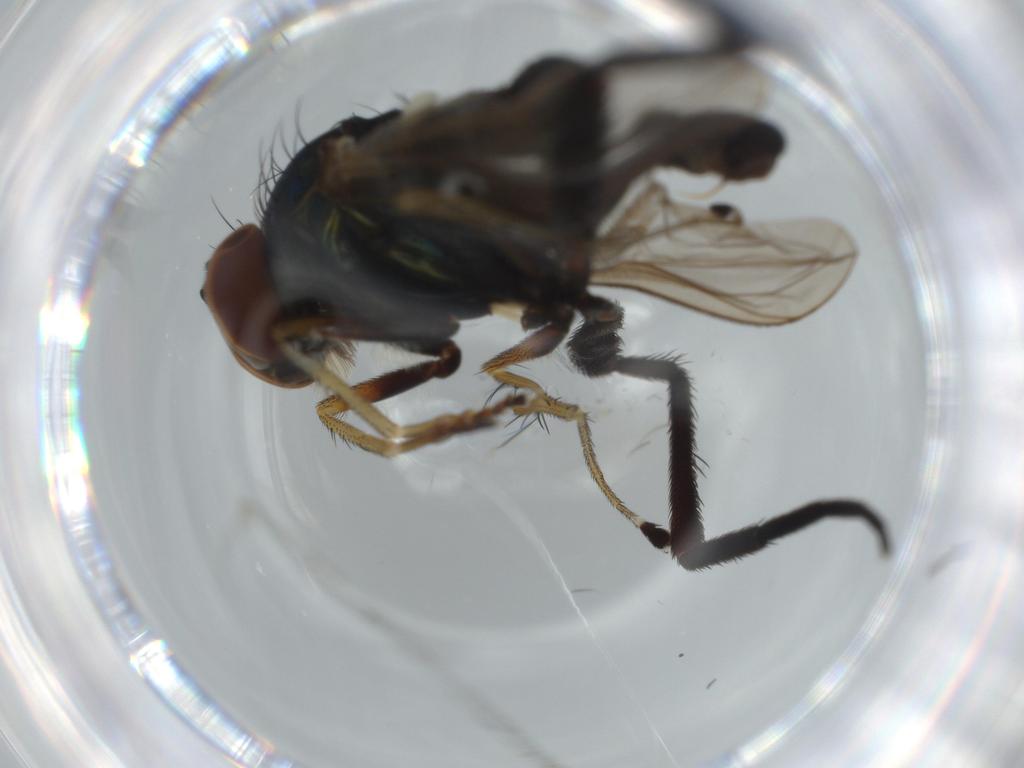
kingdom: Animalia
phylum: Arthropoda
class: Insecta
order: Diptera
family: Dolichopodidae
